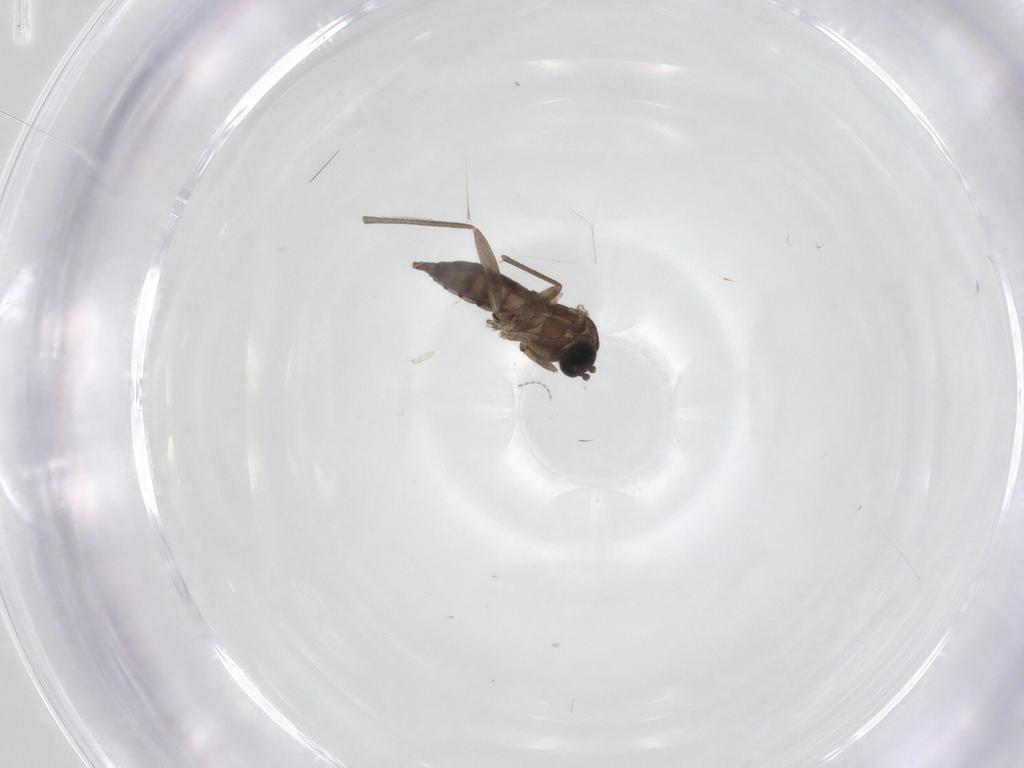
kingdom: Animalia
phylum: Arthropoda
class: Insecta
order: Diptera
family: Sciaridae
